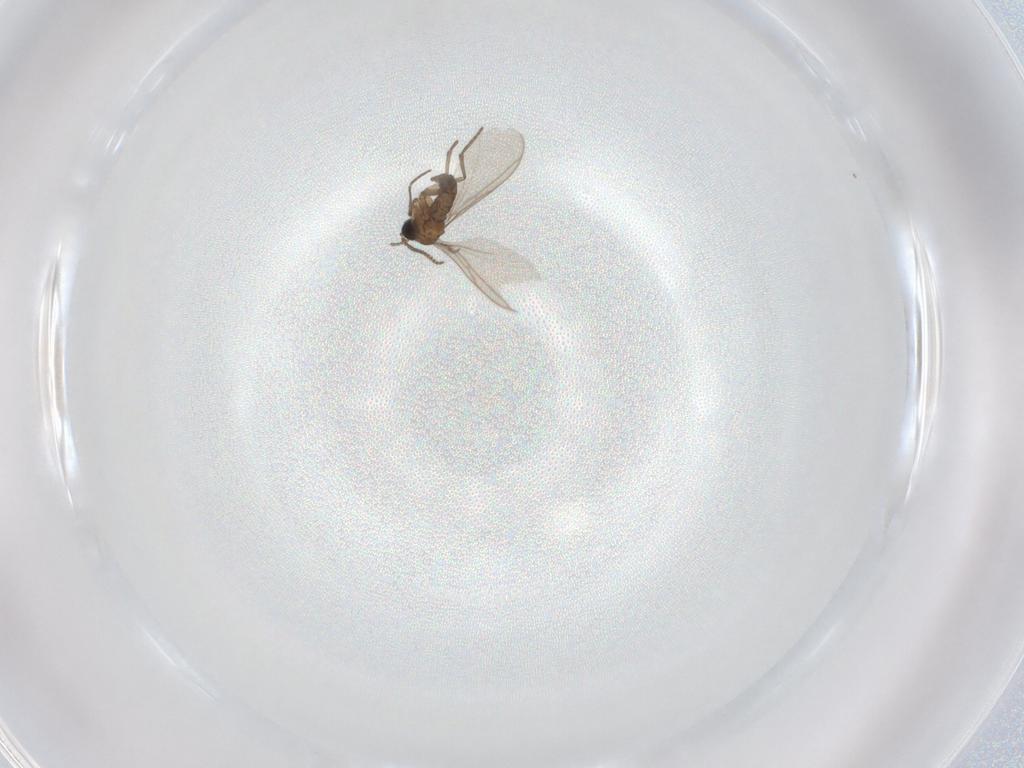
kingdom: Animalia
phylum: Arthropoda
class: Insecta
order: Diptera
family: Sciaridae
